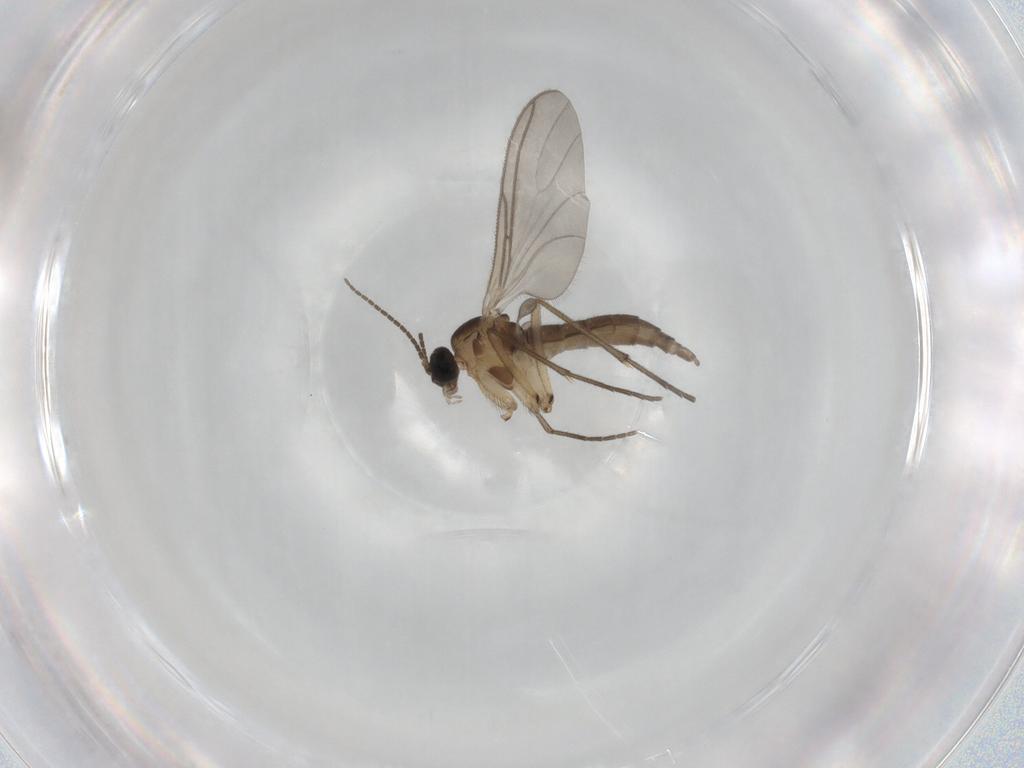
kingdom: Animalia
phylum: Arthropoda
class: Insecta
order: Diptera
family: Sciaridae
